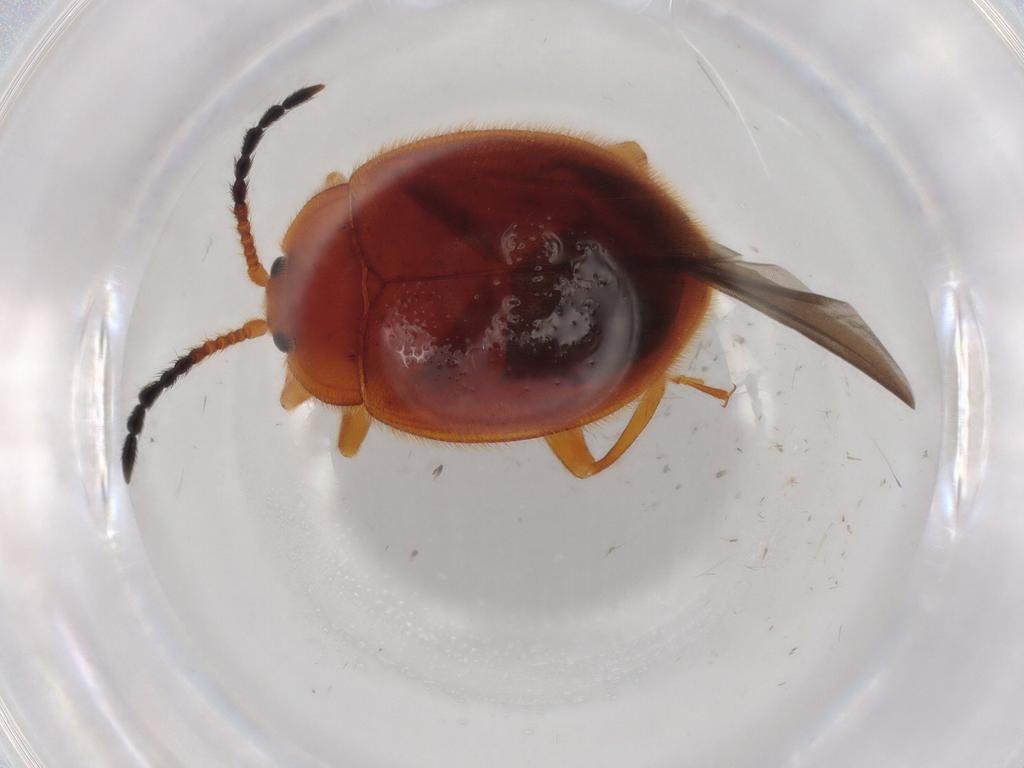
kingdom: Animalia
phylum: Arthropoda
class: Insecta
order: Coleoptera
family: Endomychidae
